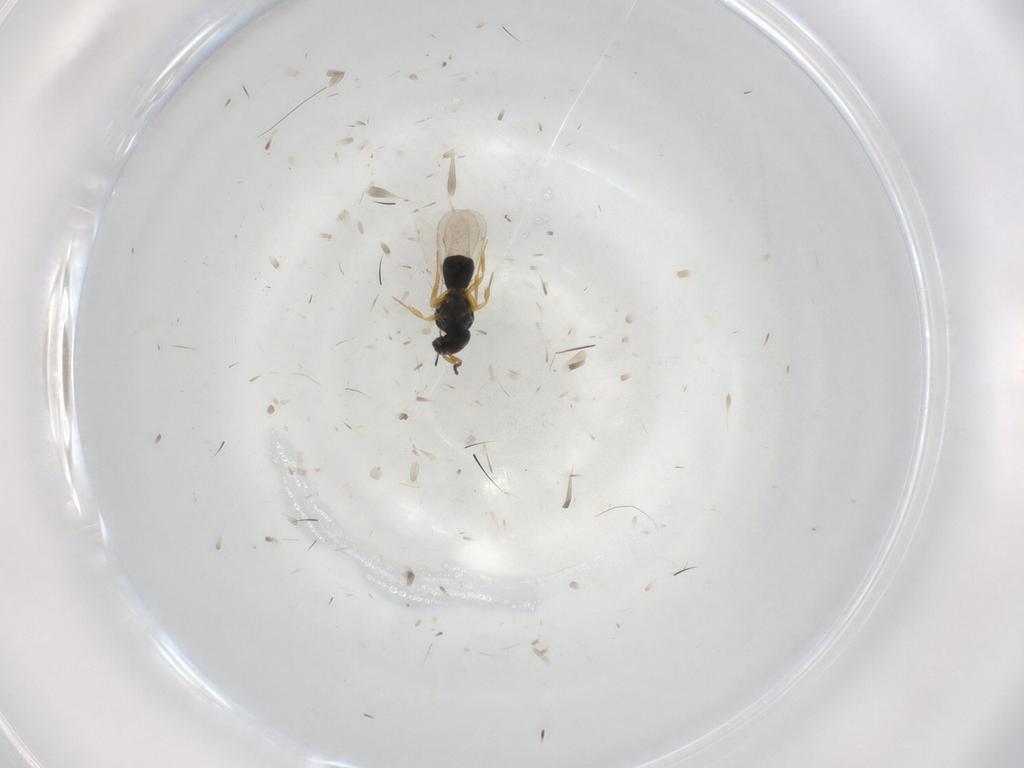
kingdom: Animalia
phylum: Arthropoda
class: Insecta
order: Hymenoptera
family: Scelionidae
